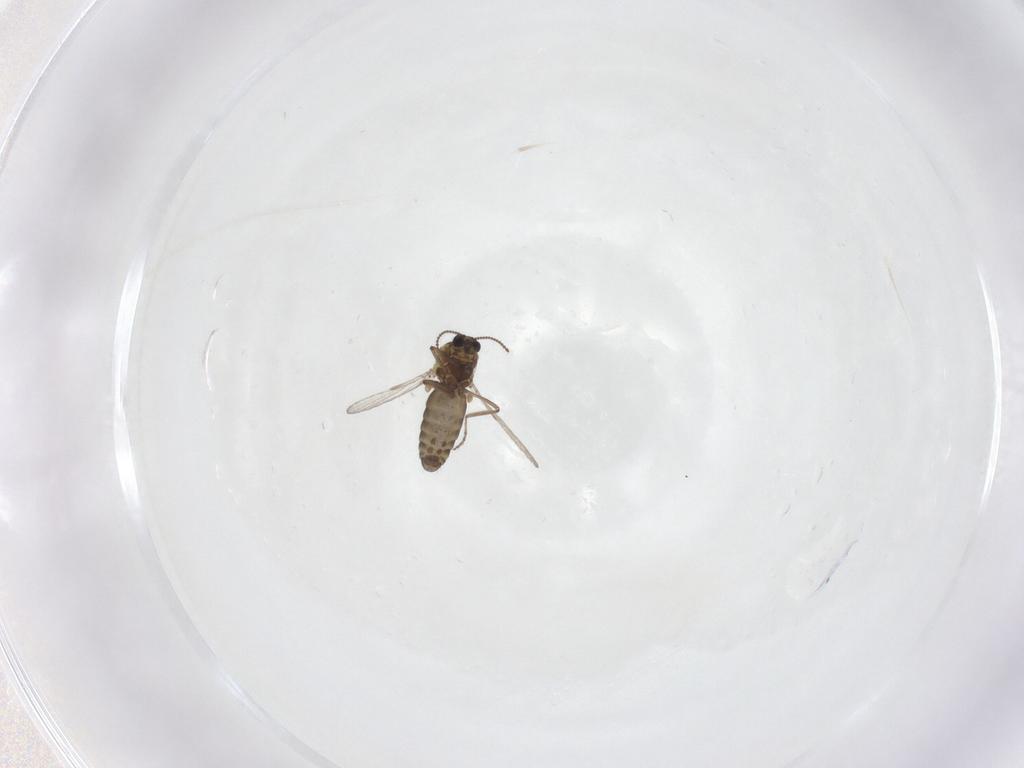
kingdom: Animalia
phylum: Arthropoda
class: Insecta
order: Diptera
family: Ceratopogonidae
